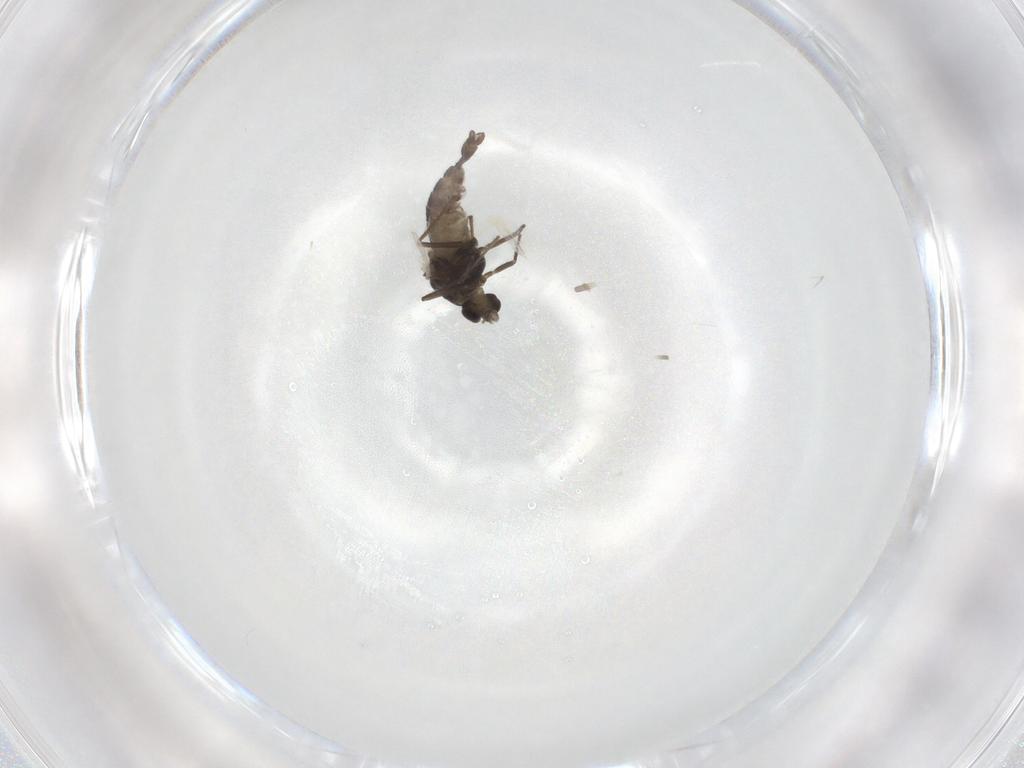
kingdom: Animalia
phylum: Arthropoda
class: Insecta
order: Diptera
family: Chironomidae
